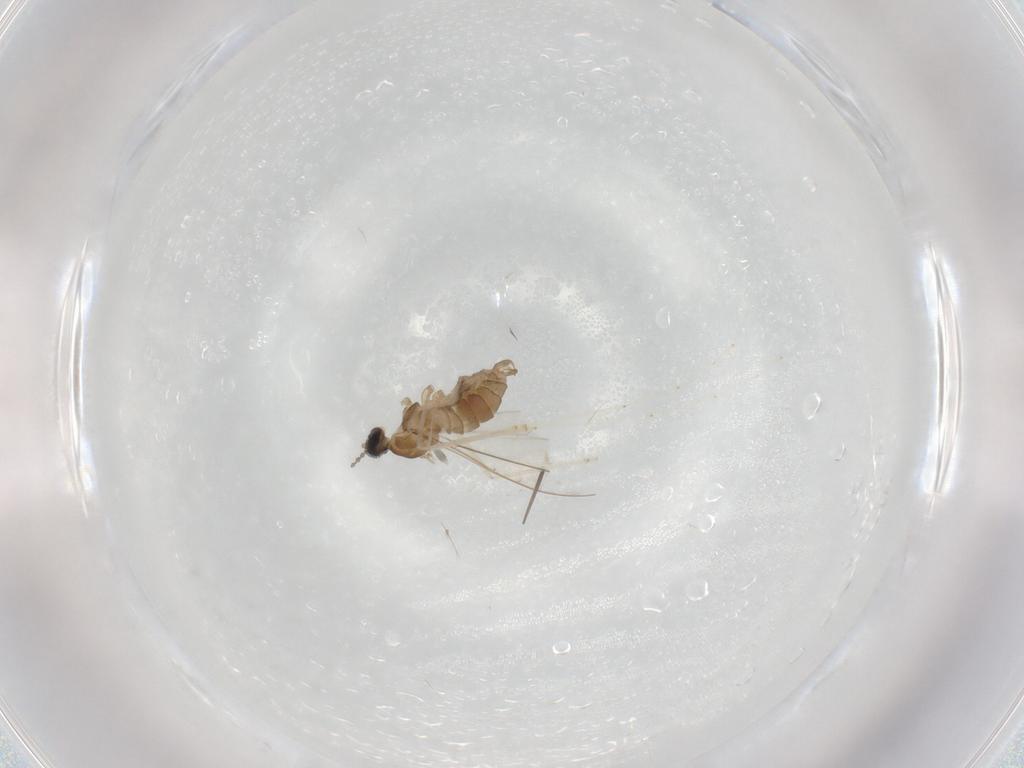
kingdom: Animalia
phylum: Arthropoda
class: Insecta
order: Diptera
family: Cecidomyiidae
